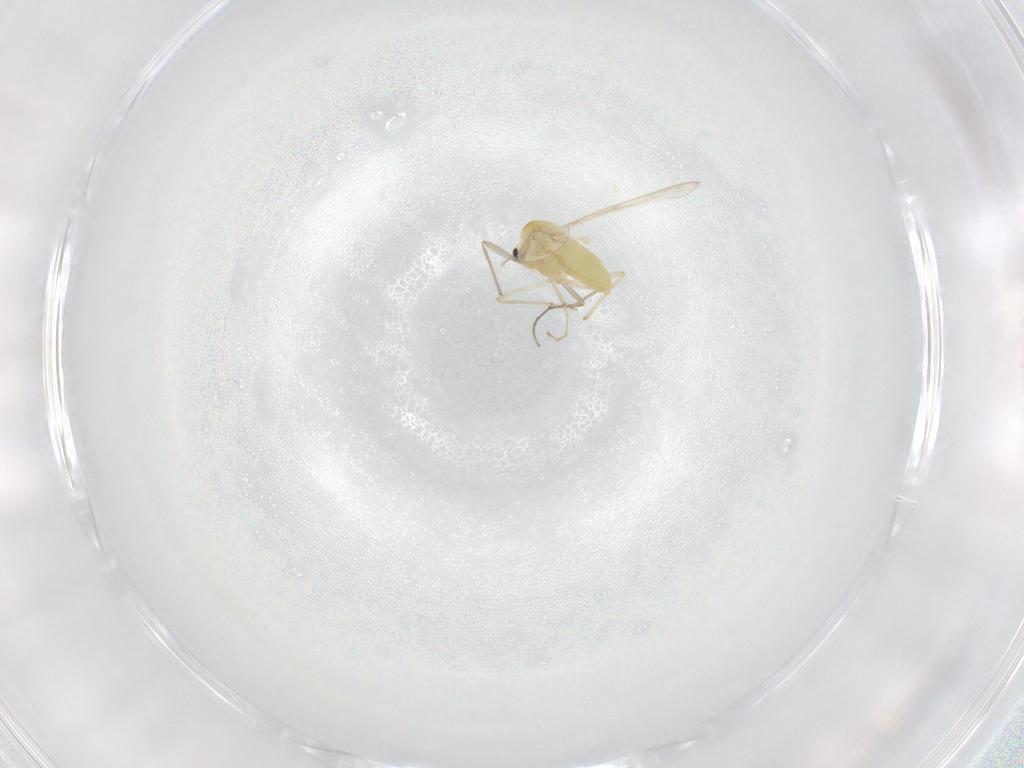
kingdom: Animalia
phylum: Arthropoda
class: Insecta
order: Diptera
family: Chironomidae
